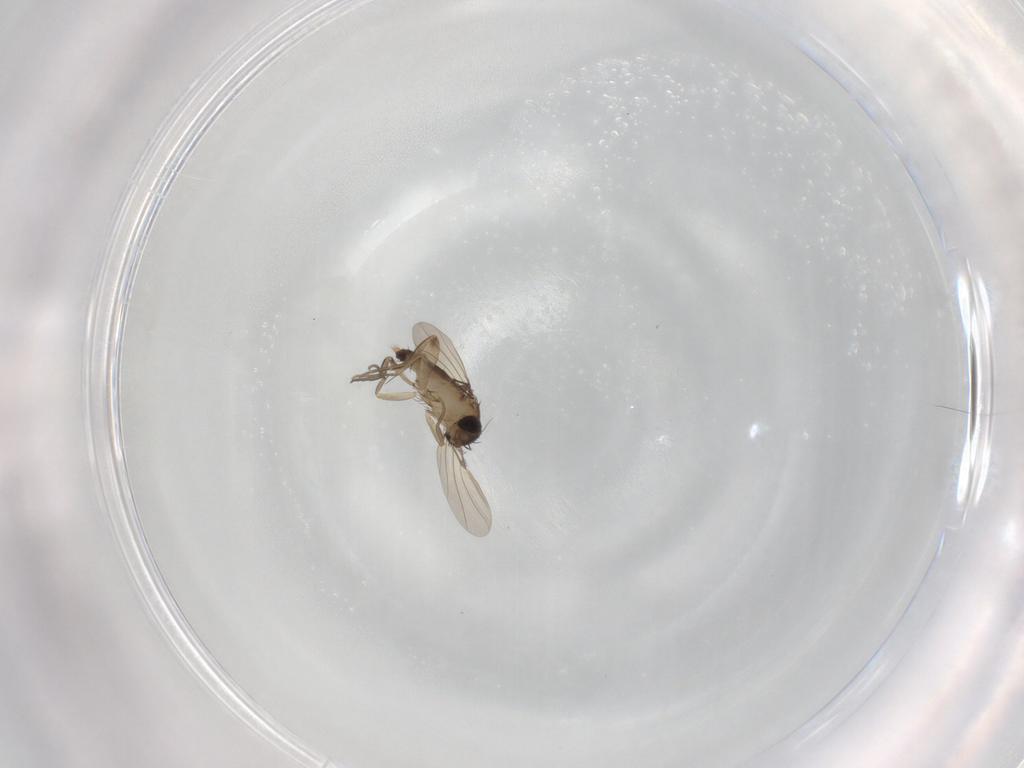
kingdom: Animalia
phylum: Arthropoda
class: Insecta
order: Diptera
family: Phoridae
